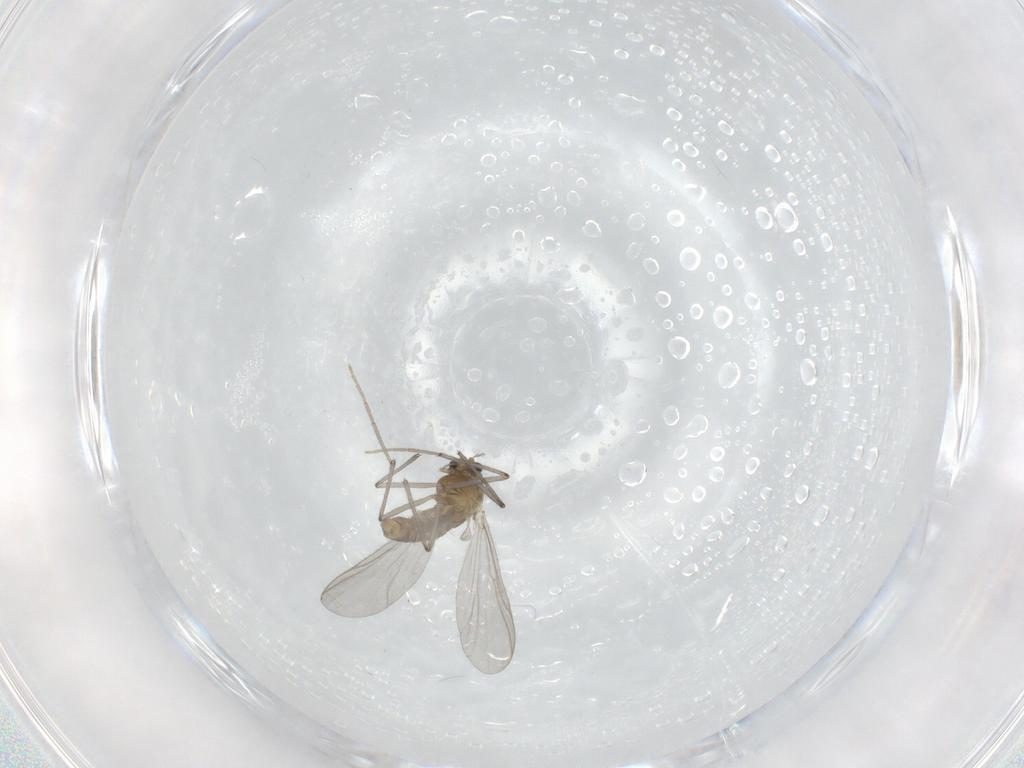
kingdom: Animalia
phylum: Arthropoda
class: Insecta
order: Diptera
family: Chironomidae
